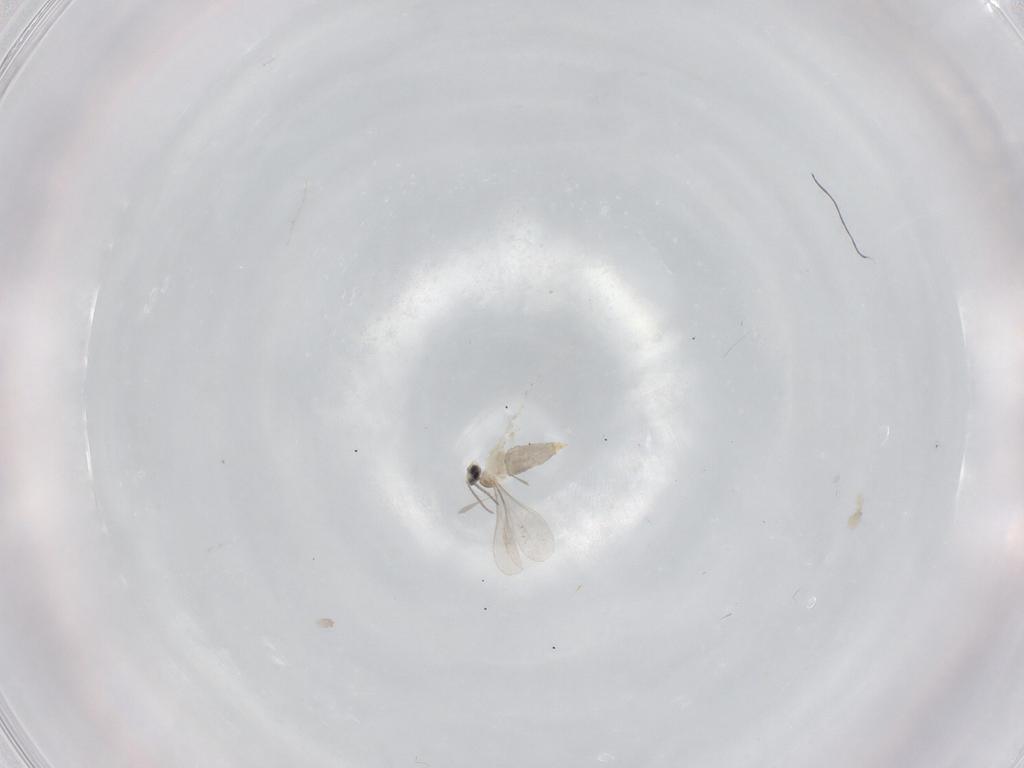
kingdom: Animalia
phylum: Arthropoda
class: Insecta
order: Diptera
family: Cecidomyiidae
